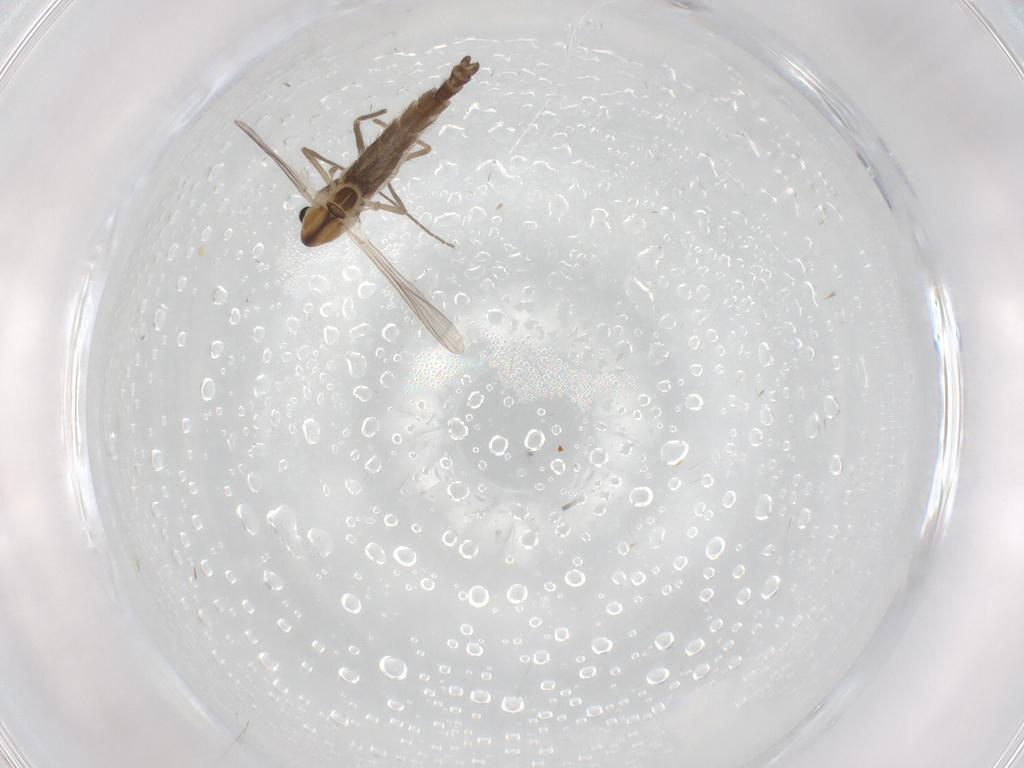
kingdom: Animalia
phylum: Arthropoda
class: Insecta
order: Diptera
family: Chironomidae
